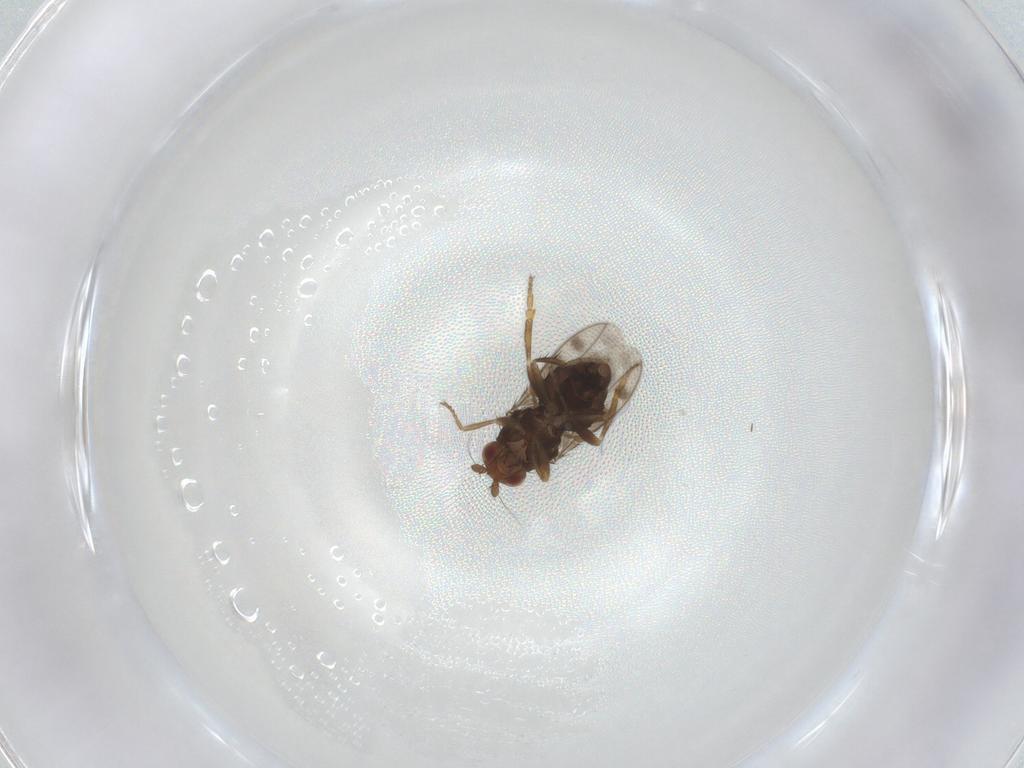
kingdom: Animalia
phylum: Arthropoda
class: Insecta
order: Diptera
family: Sphaeroceridae
